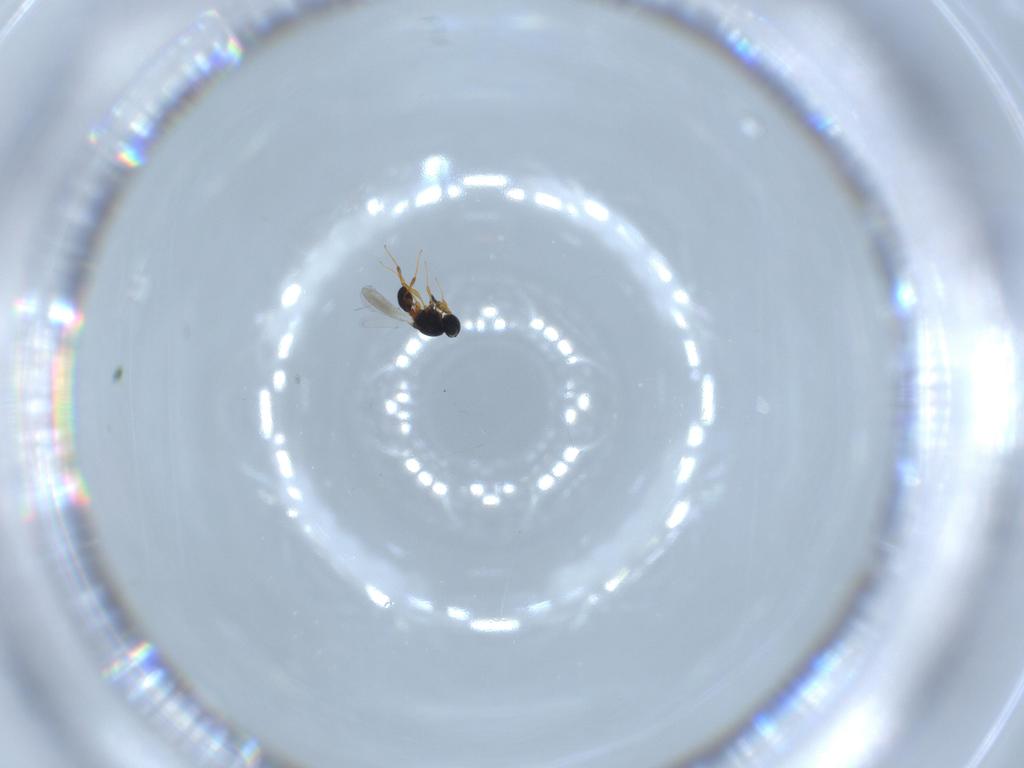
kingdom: Animalia
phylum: Arthropoda
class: Insecta
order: Hymenoptera
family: Platygastridae
